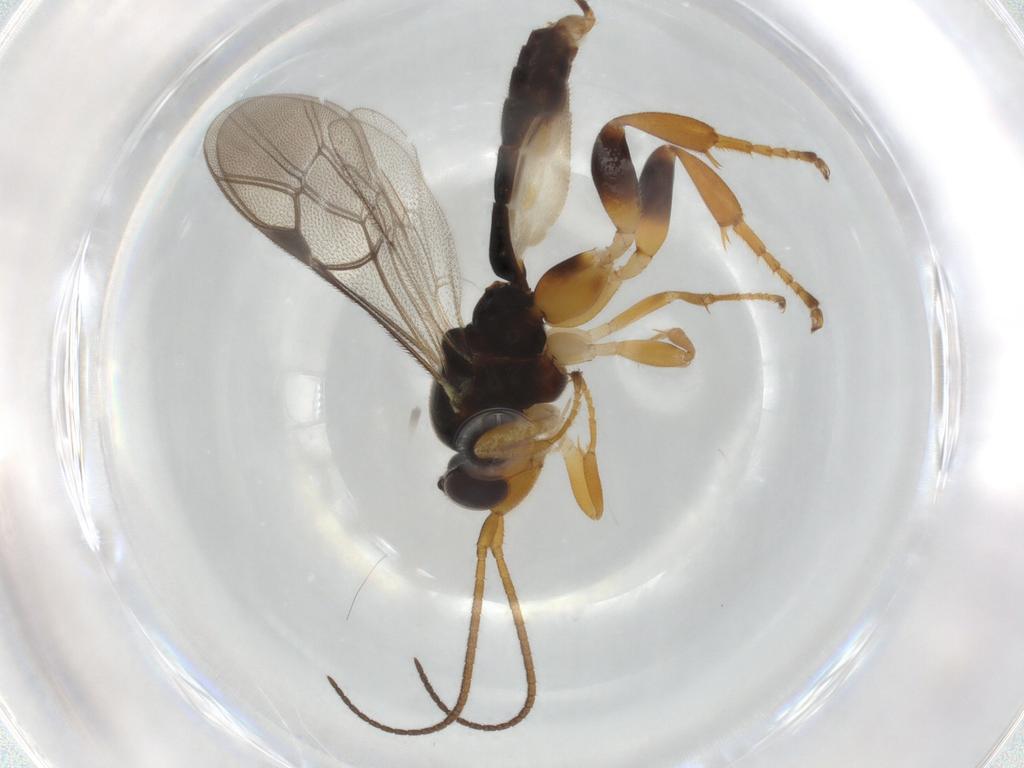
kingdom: Animalia
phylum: Arthropoda
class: Insecta
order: Hymenoptera
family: Ichneumonidae
